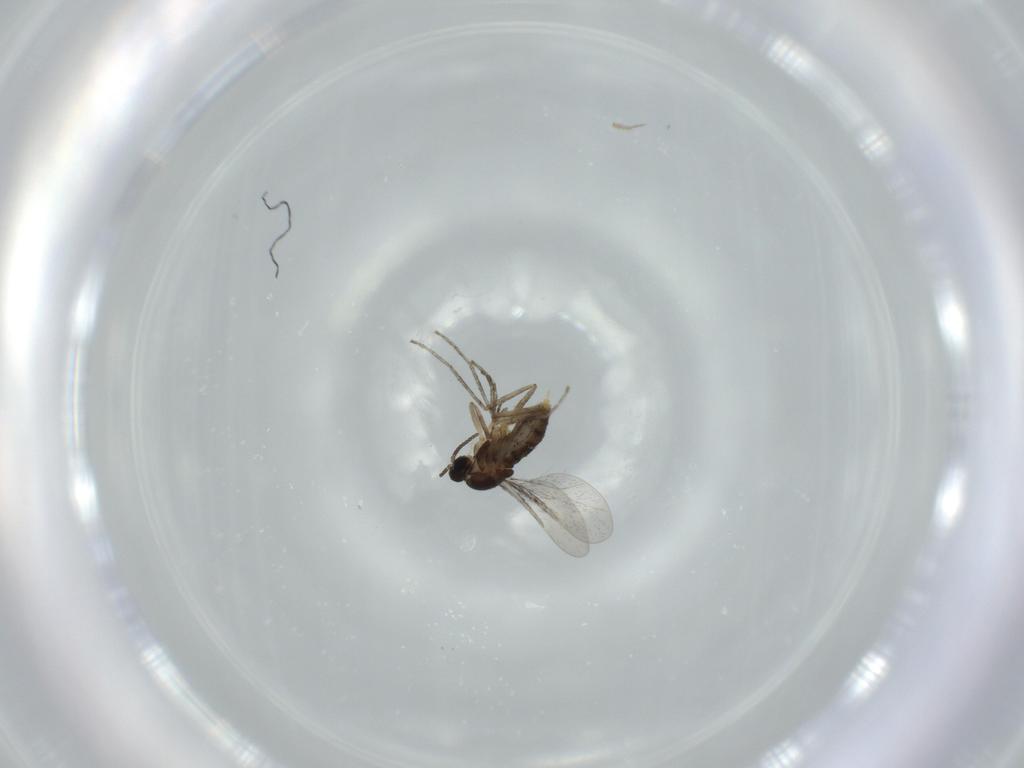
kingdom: Animalia
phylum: Arthropoda
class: Insecta
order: Diptera
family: Cecidomyiidae
